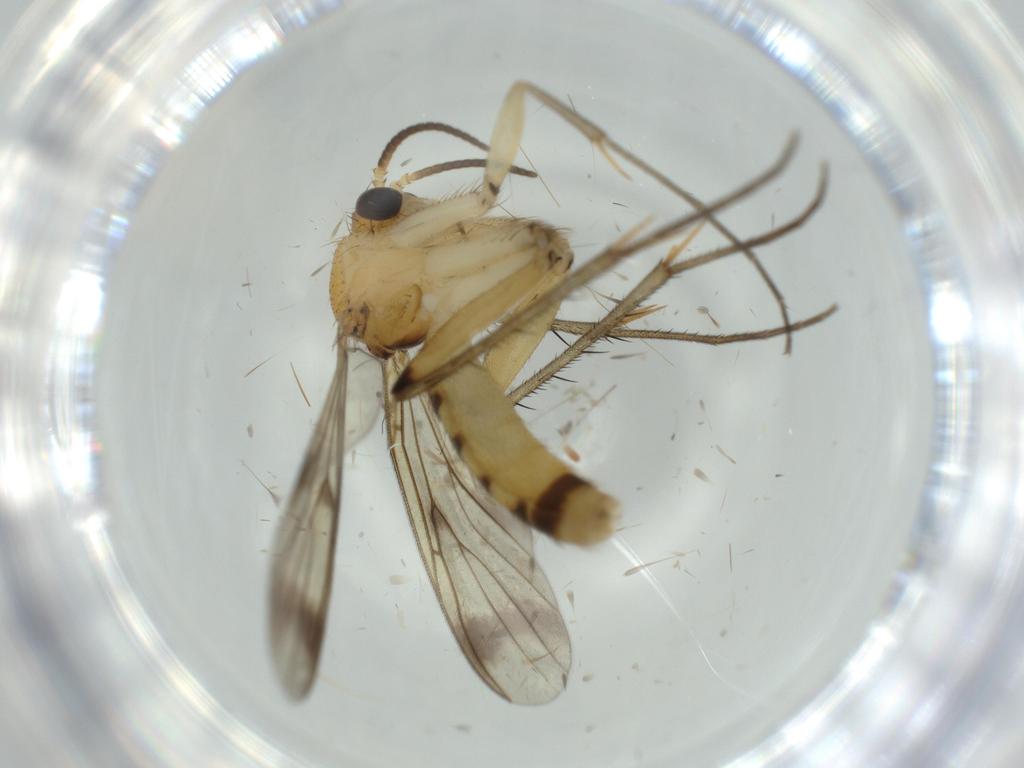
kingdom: Animalia
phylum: Arthropoda
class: Insecta
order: Diptera
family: Mycetophilidae
